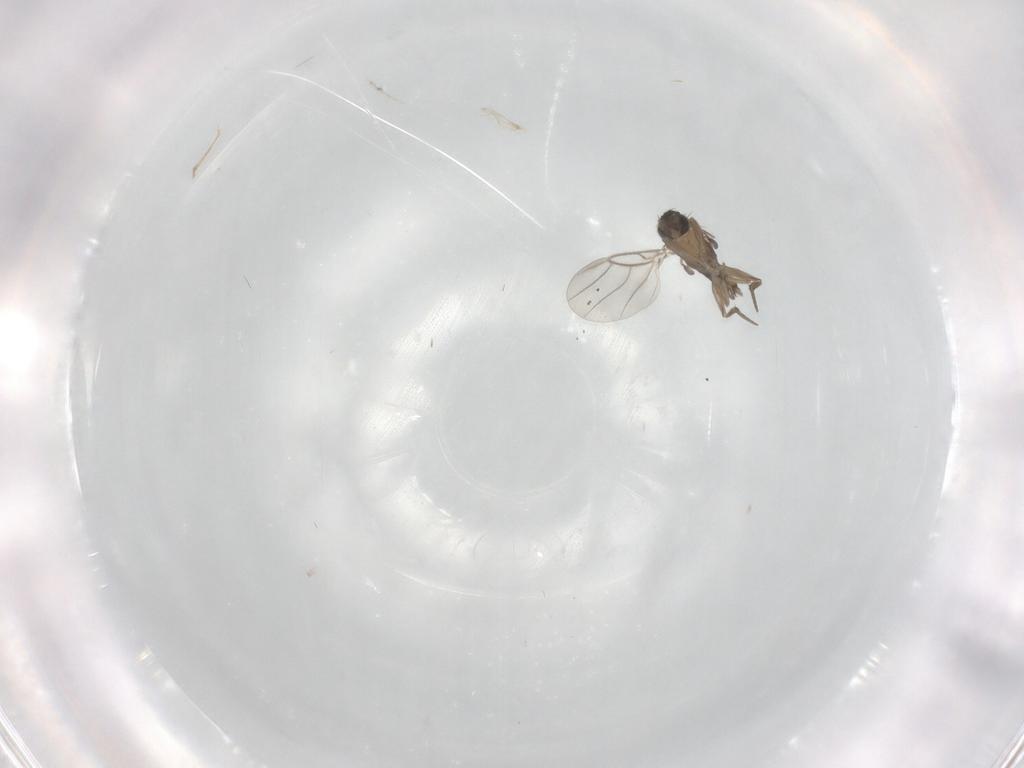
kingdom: Animalia
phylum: Arthropoda
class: Insecta
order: Diptera
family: Phoridae
